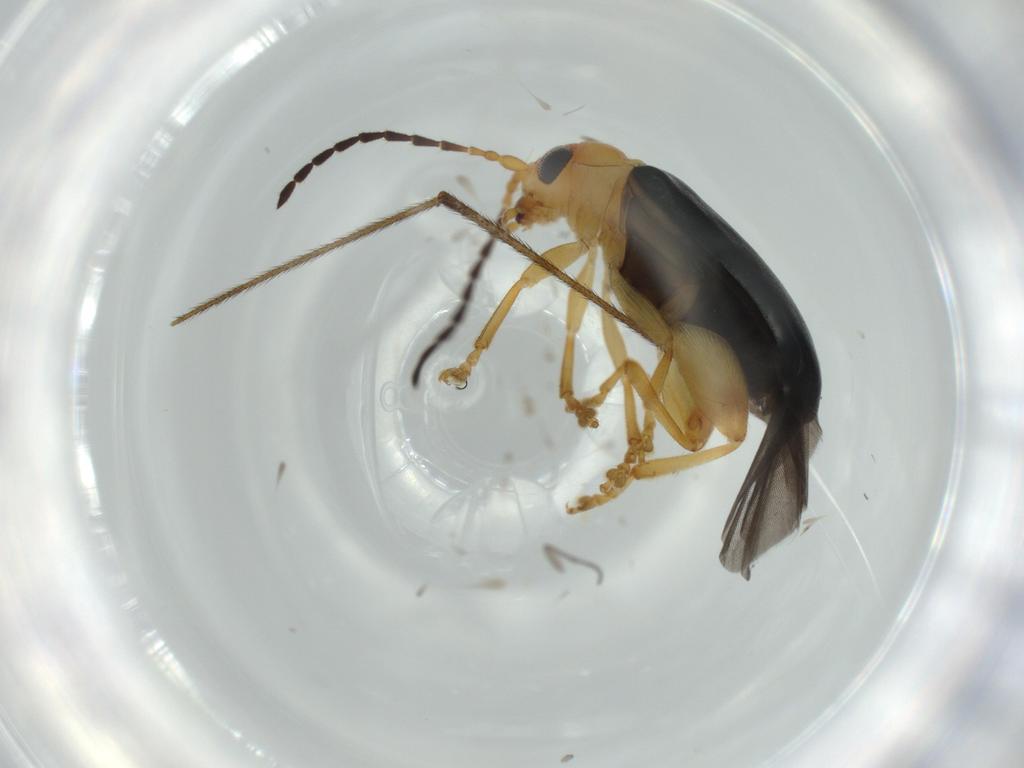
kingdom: Animalia
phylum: Arthropoda
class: Insecta
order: Coleoptera
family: Chrysomelidae
